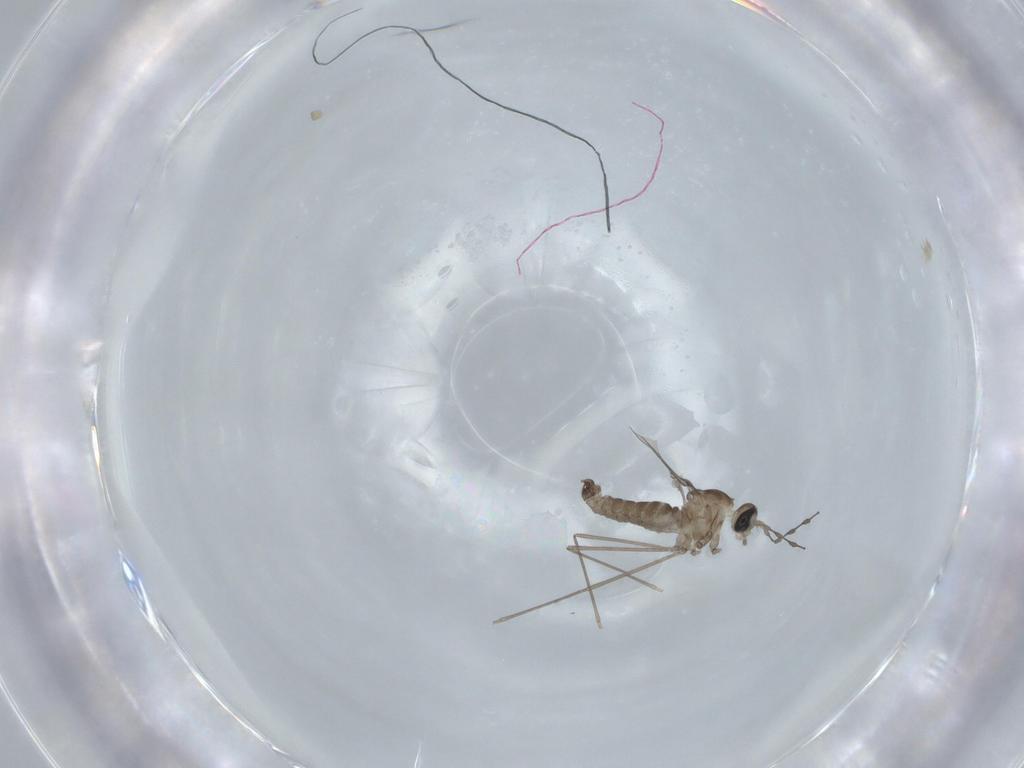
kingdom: Animalia
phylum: Arthropoda
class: Insecta
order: Diptera
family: Cecidomyiidae
